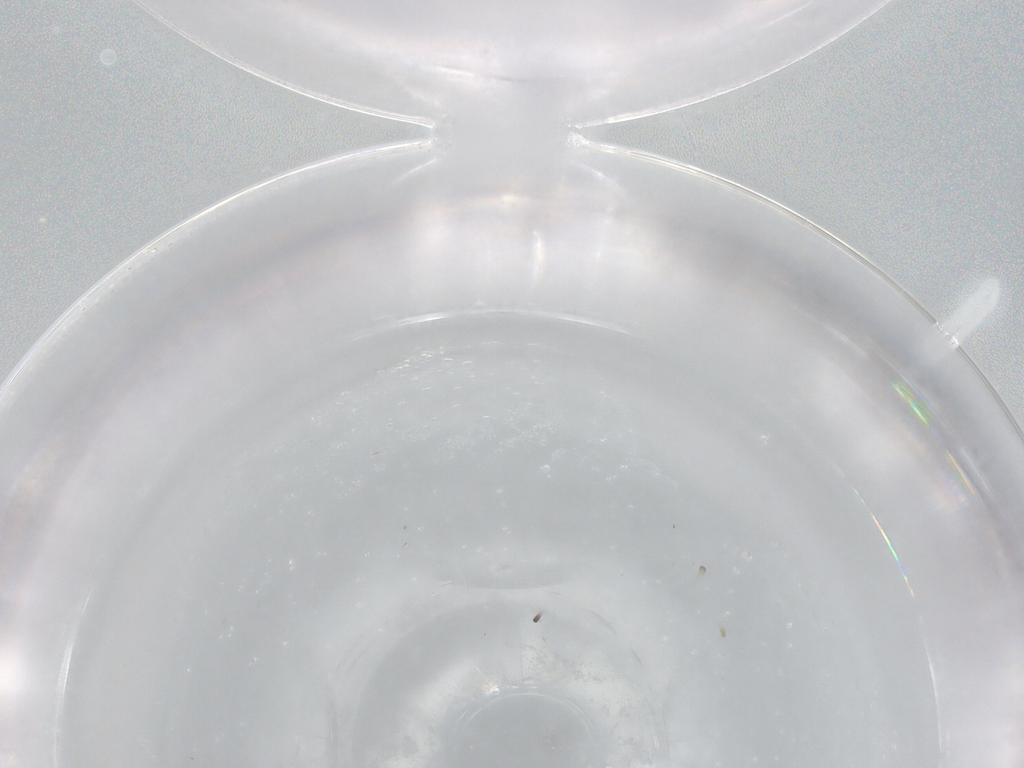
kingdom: Animalia
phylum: Arthropoda
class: Insecta
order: Diptera
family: Sphaeroceridae
